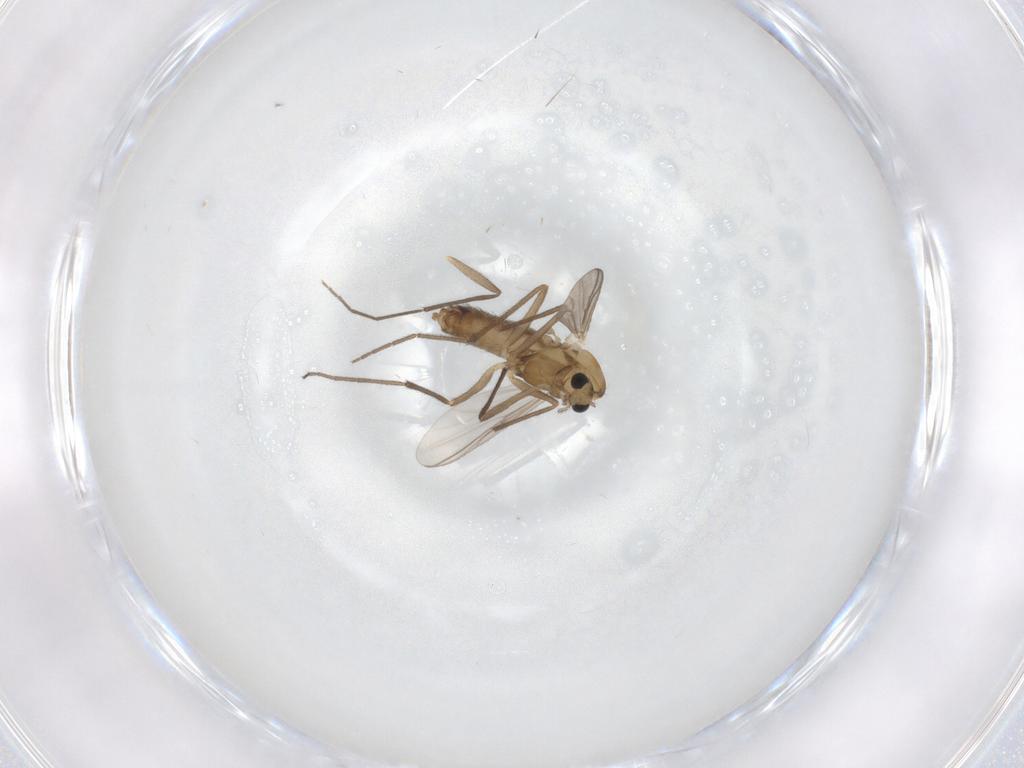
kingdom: Animalia
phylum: Arthropoda
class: Insecta
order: Diptera
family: Chironomidae
